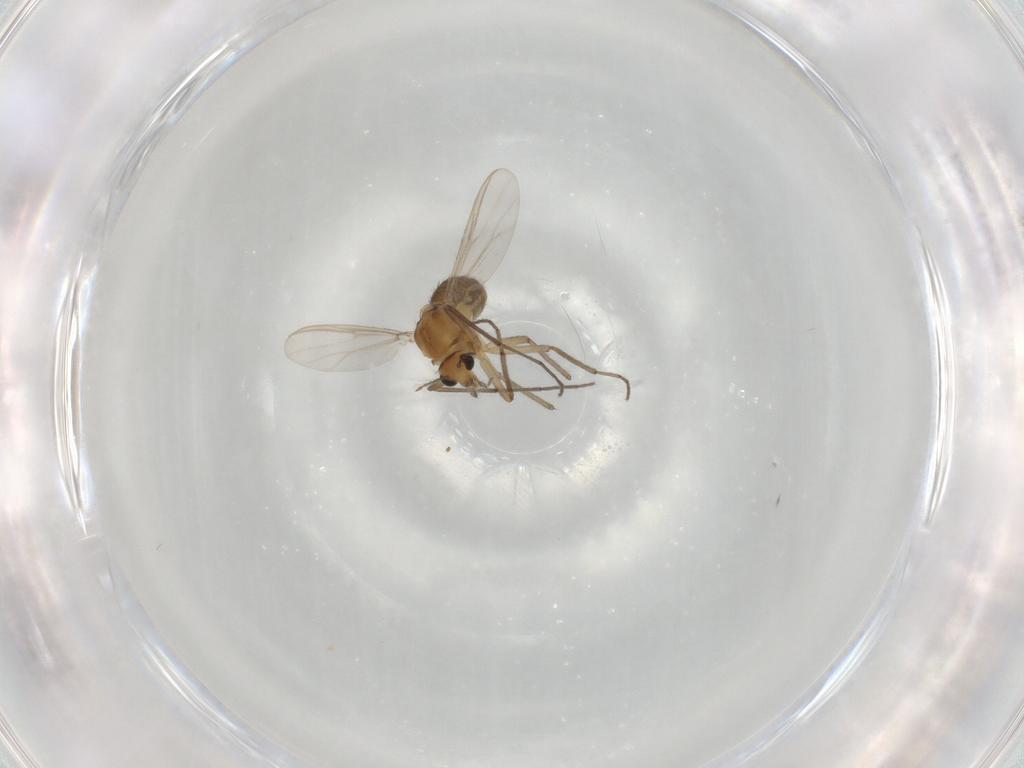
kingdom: Animalia
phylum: Arthropoda
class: Insecta
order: Diptera
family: Chironomidae
